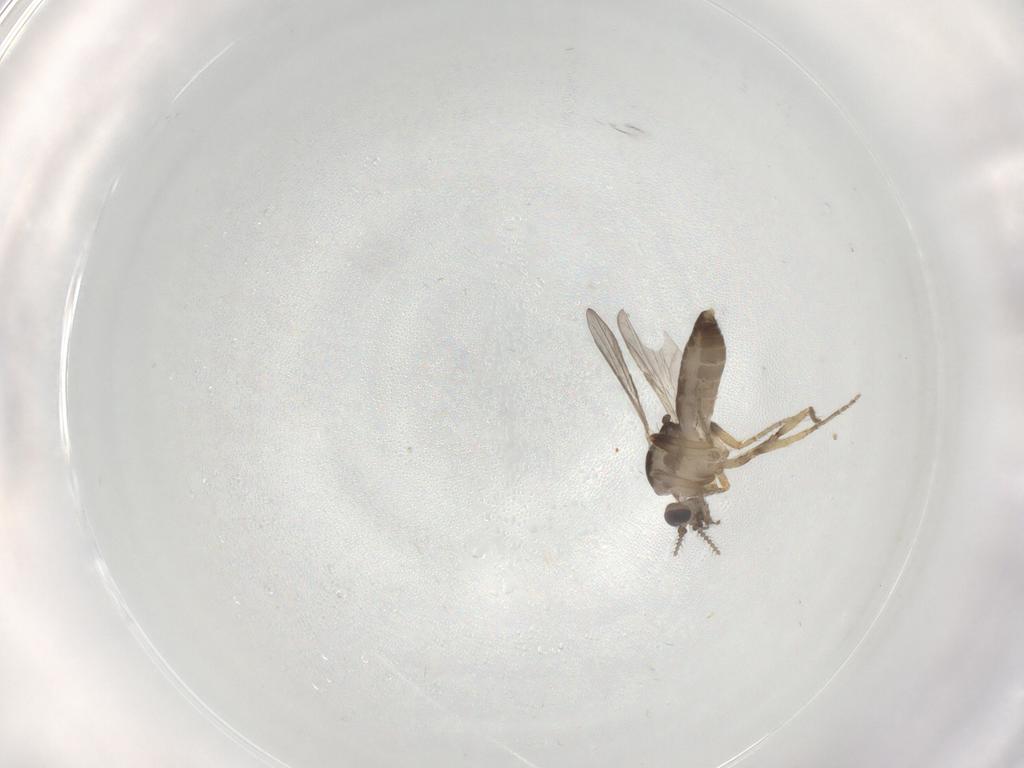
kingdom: Animalia
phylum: Arthropoda
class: Insecta
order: Diptera
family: Ceratopogonidae
